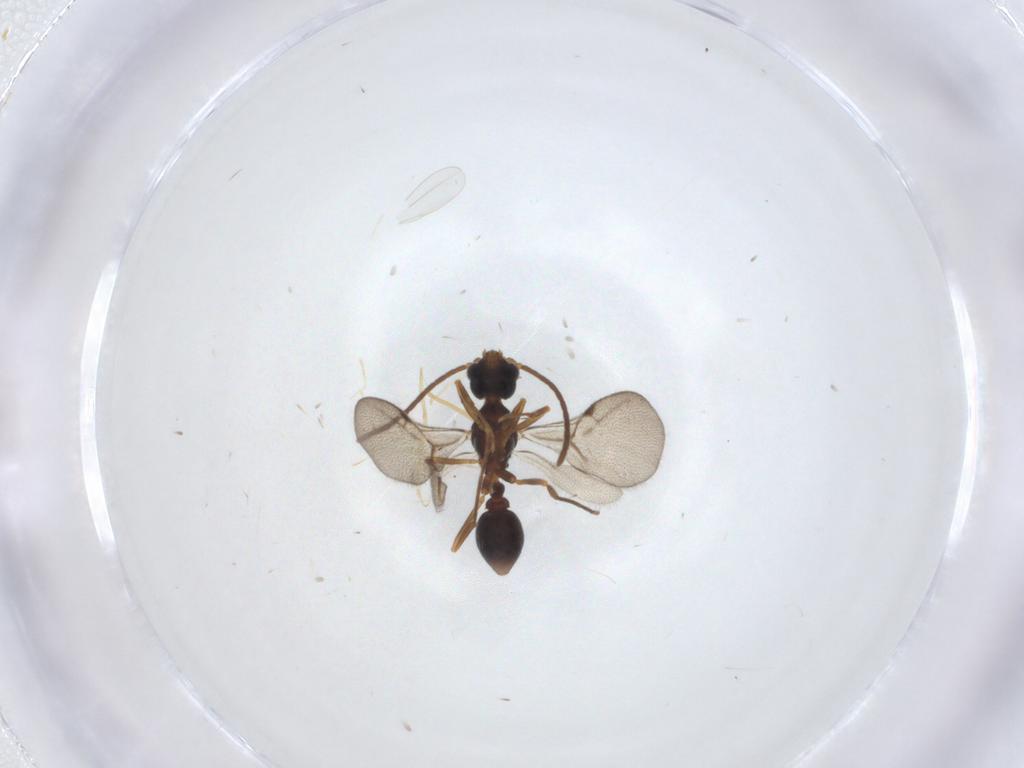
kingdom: Animalia
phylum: Arthropoda
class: Insecta
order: Hymenoptera
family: Formicidae
